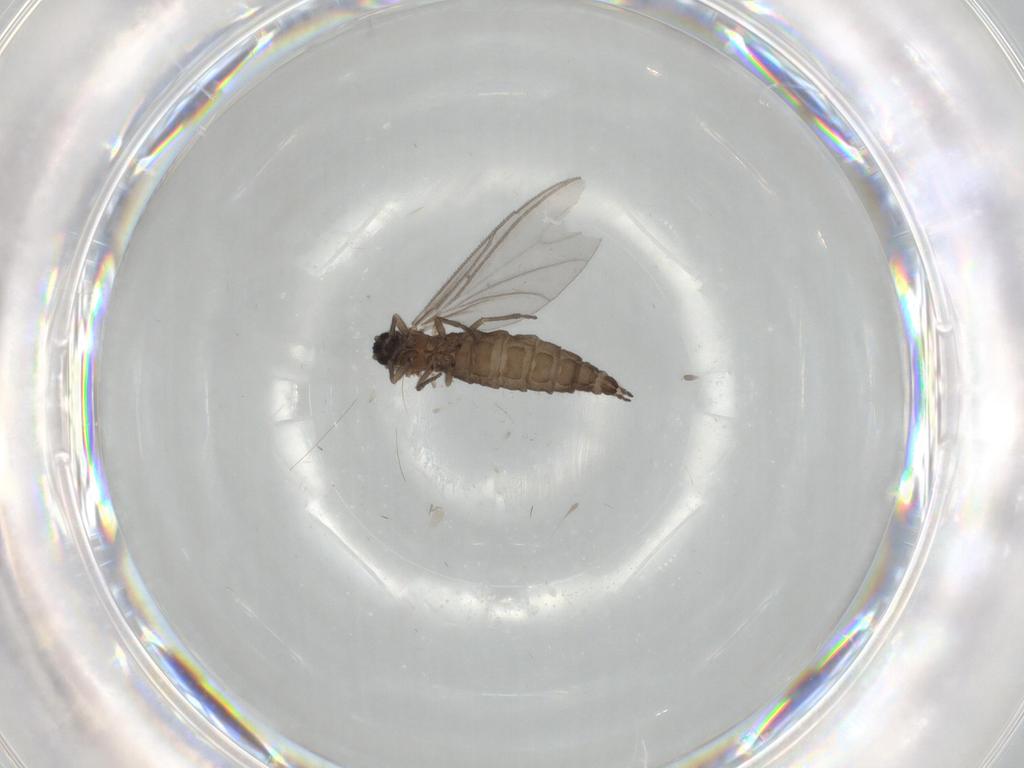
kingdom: Animalia
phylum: Arthropoda
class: Insecta
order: Diptera
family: Sciaridae
